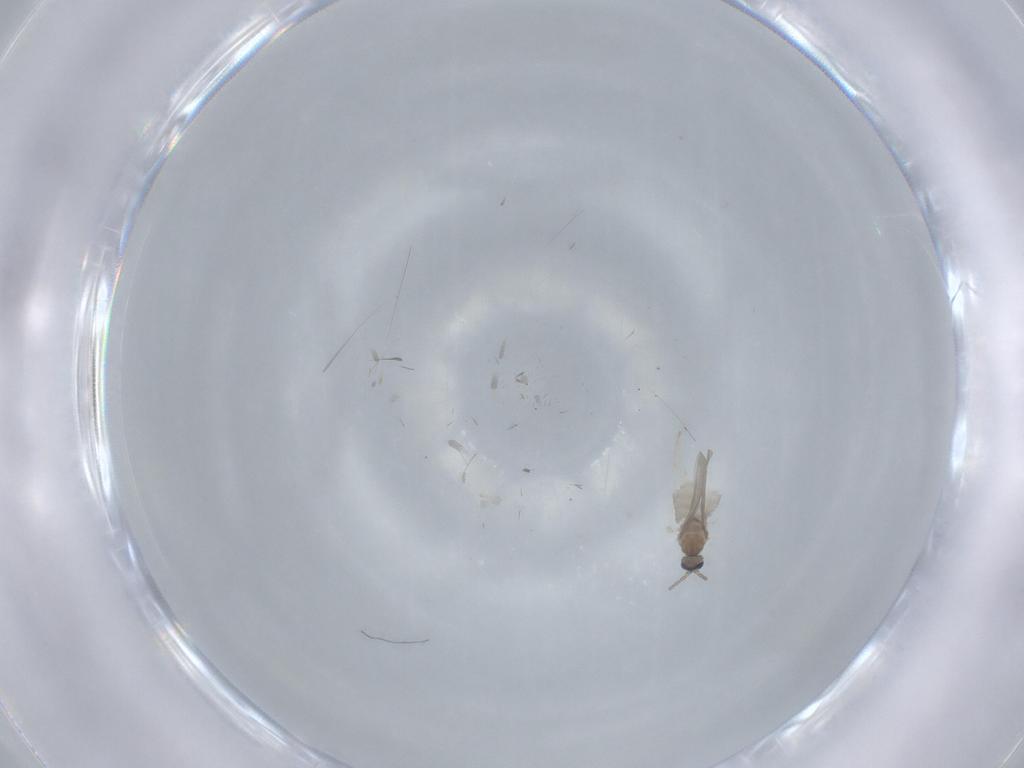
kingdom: Animalia
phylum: Arthropoda
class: Insecta
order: Diptera
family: Cecidomyiidae
